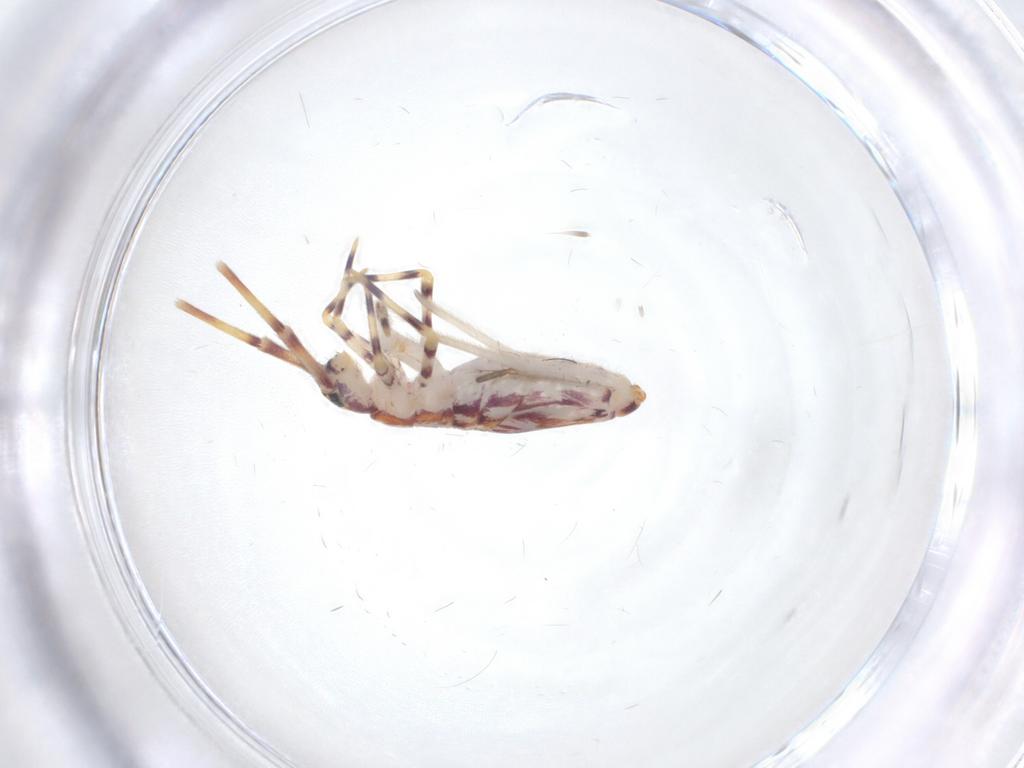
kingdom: Animalia
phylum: Arthropoda
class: Collembola
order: Entomobryomorpha
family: Entomobryidae
